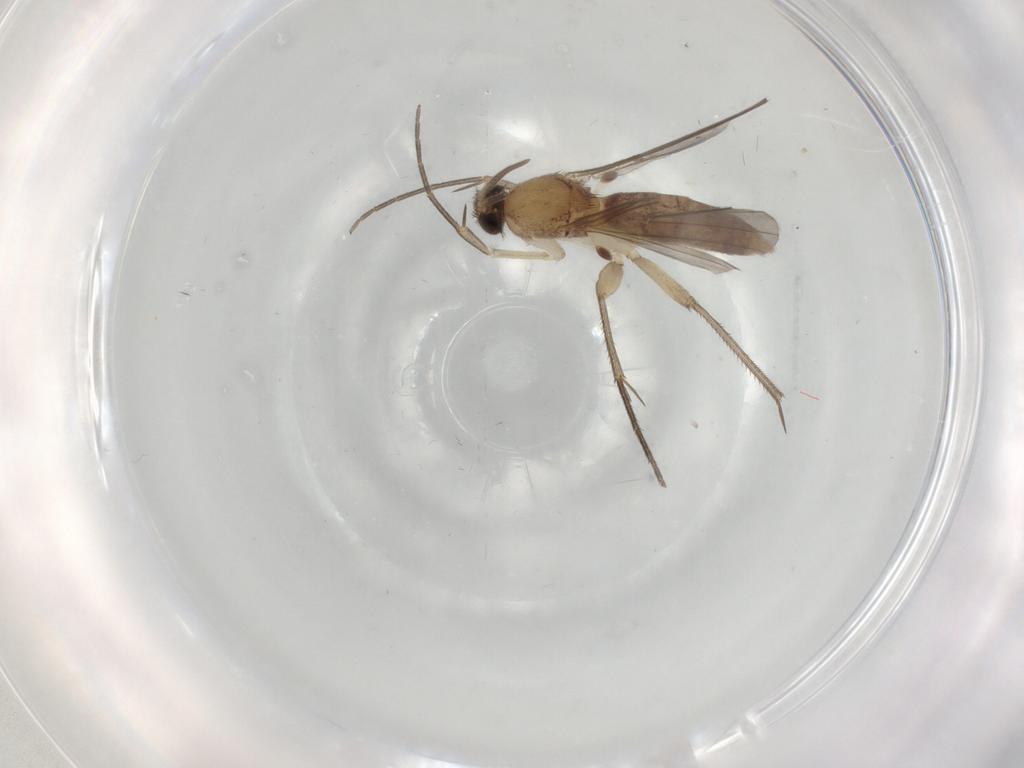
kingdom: Animalia
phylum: Arthropoda
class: Insecta
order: Diptera
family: Mycetophilidae
